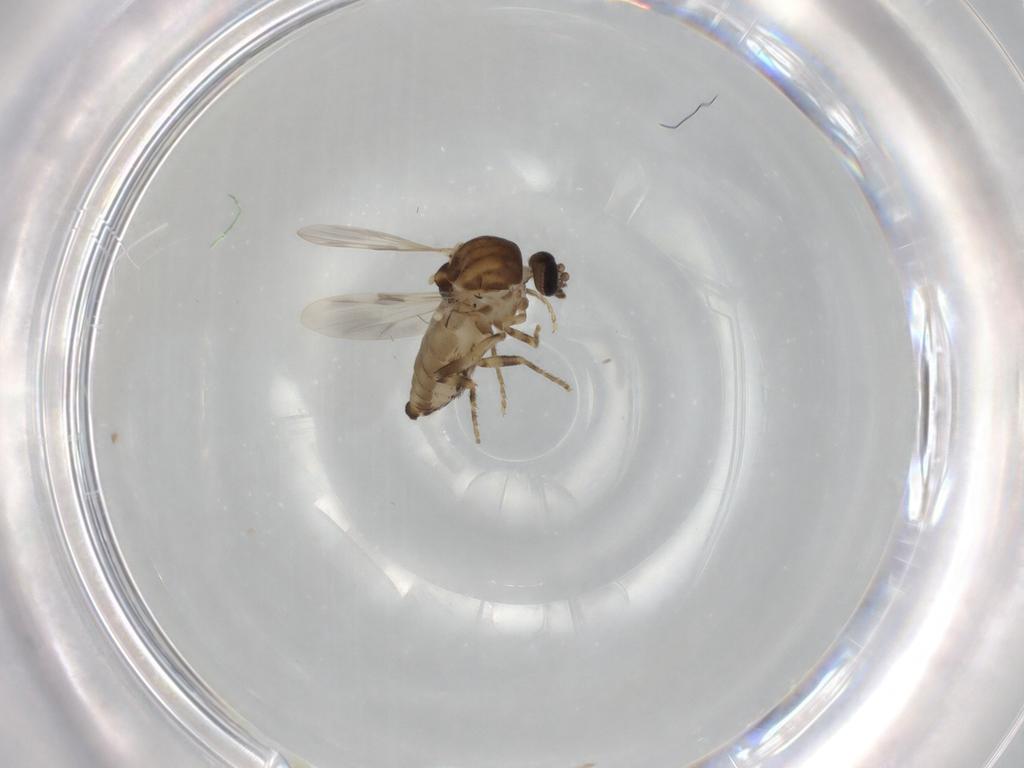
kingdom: Animalia
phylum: Arthropoda
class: Insecta
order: Diptera
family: Ceratopogonidae
